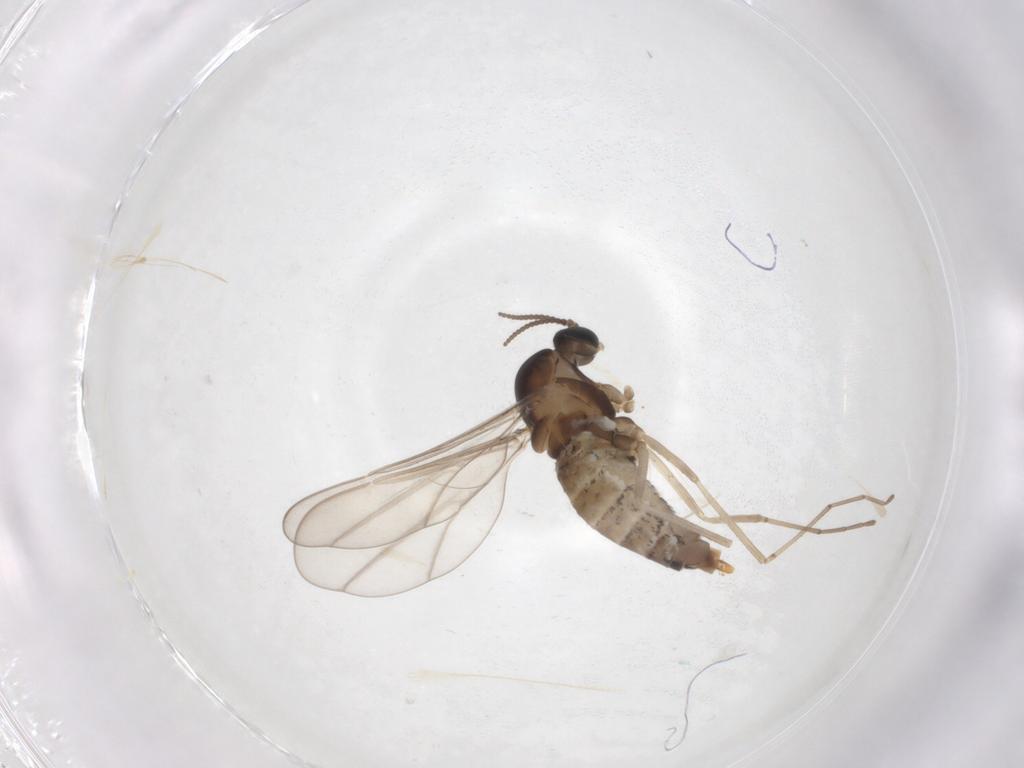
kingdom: Animalia
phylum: Arthropoda
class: Insecta
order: Diptera
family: Cecidomyiidae
